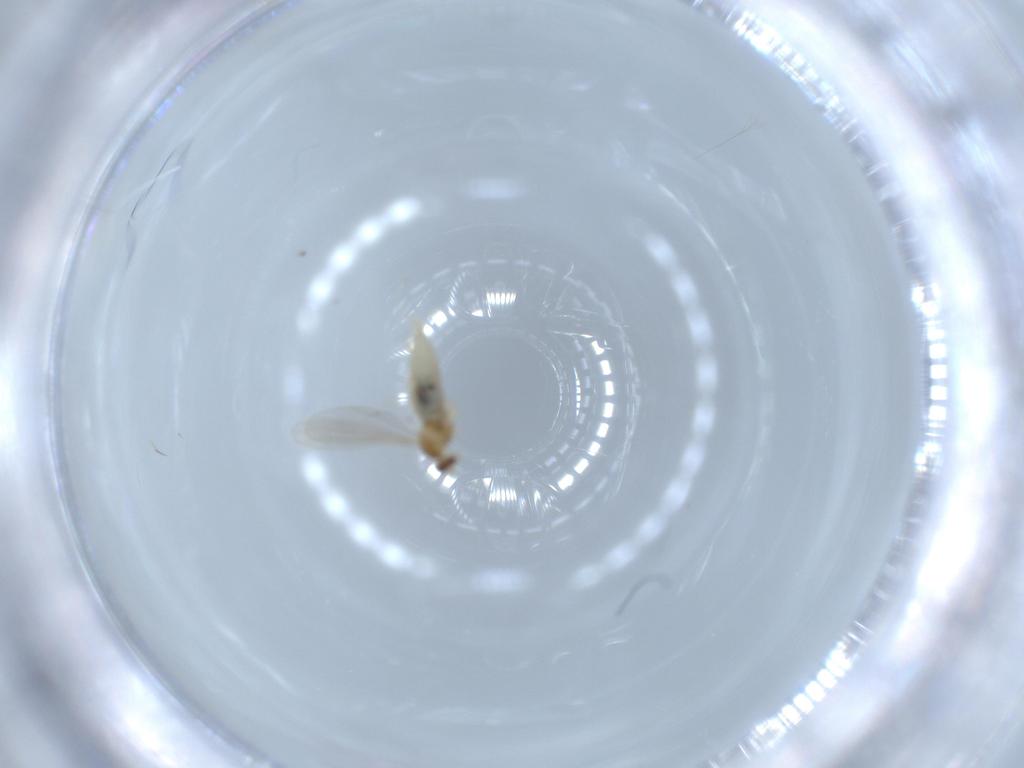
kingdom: Animalia
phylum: Arthropoda
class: Insecta
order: Diptera
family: Cecidomyiidae
